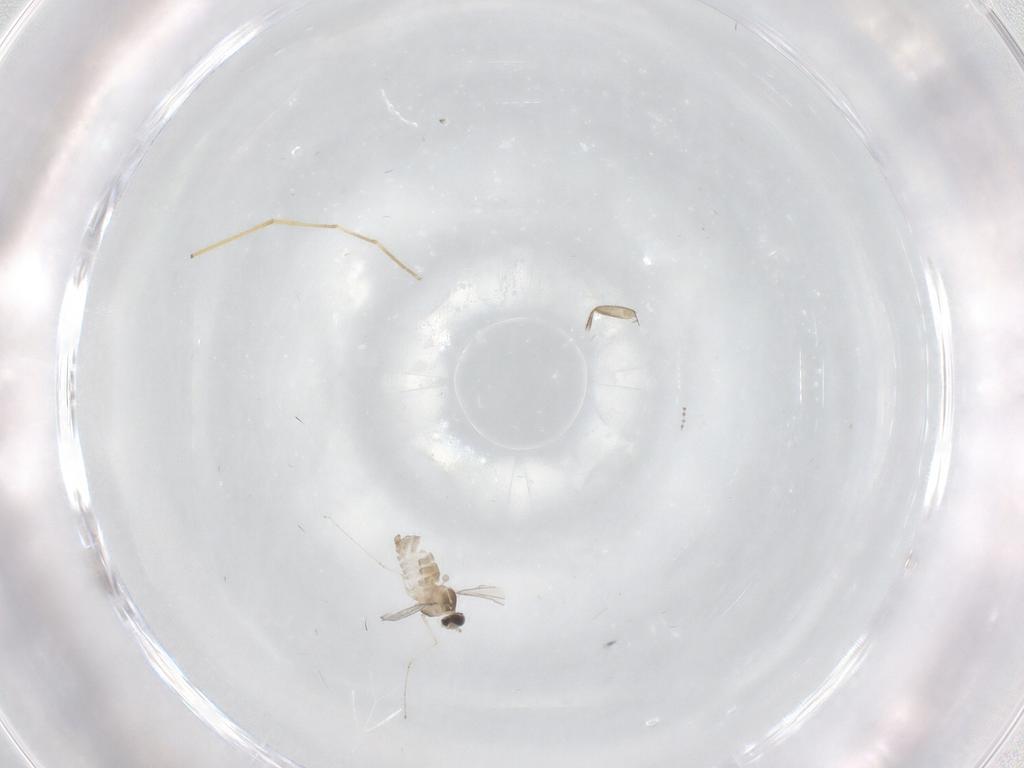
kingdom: Animalia
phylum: Arthropoda
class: Insecta
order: Diptera
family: Cecidomyiidae
